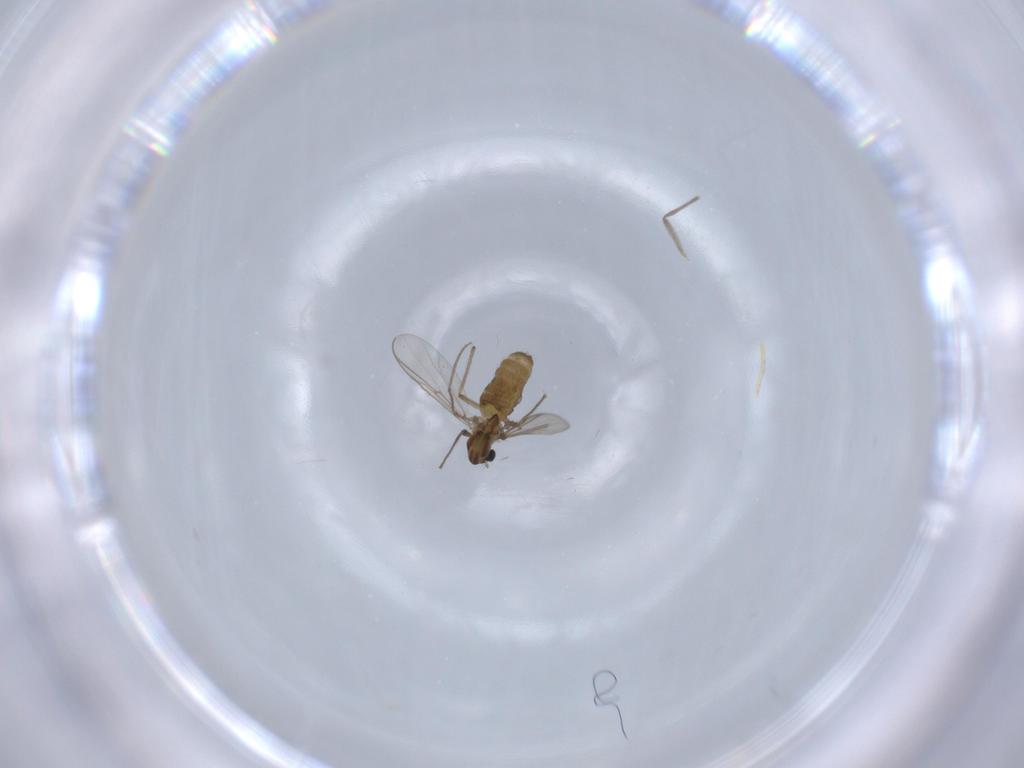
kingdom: Animalia
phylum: Arthropoda
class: Insecta
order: Diptera
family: Chironomidae
